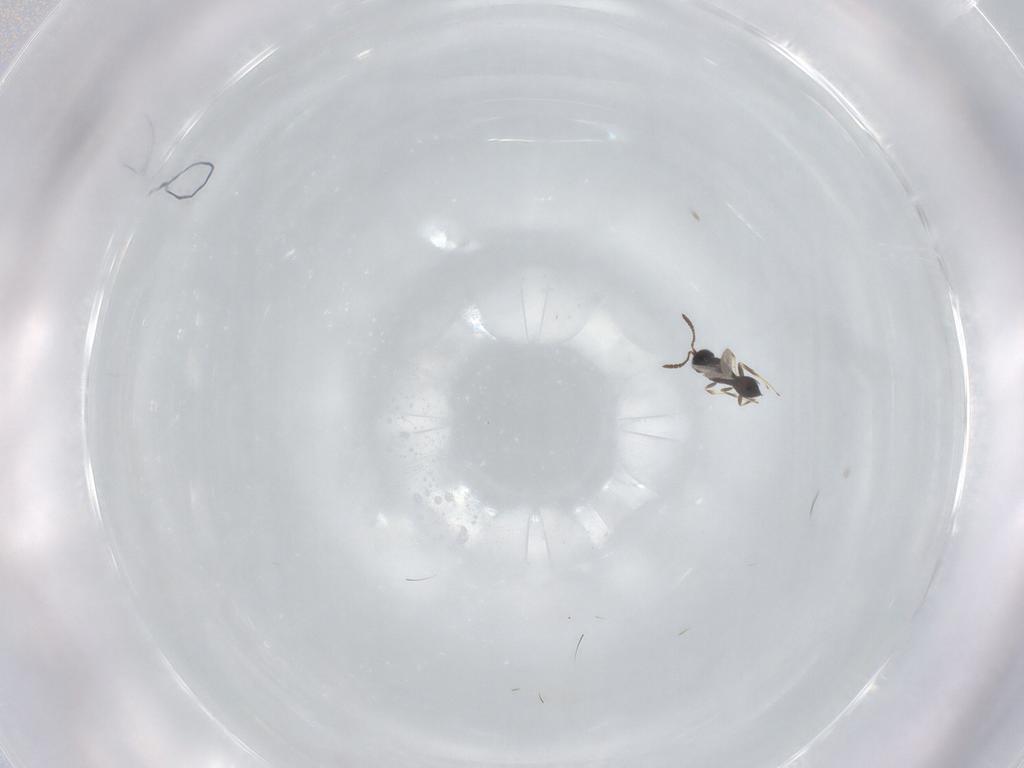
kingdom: Animalia
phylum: Arthropoda
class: Insecta
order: Hymenoptera
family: Scelionidae
